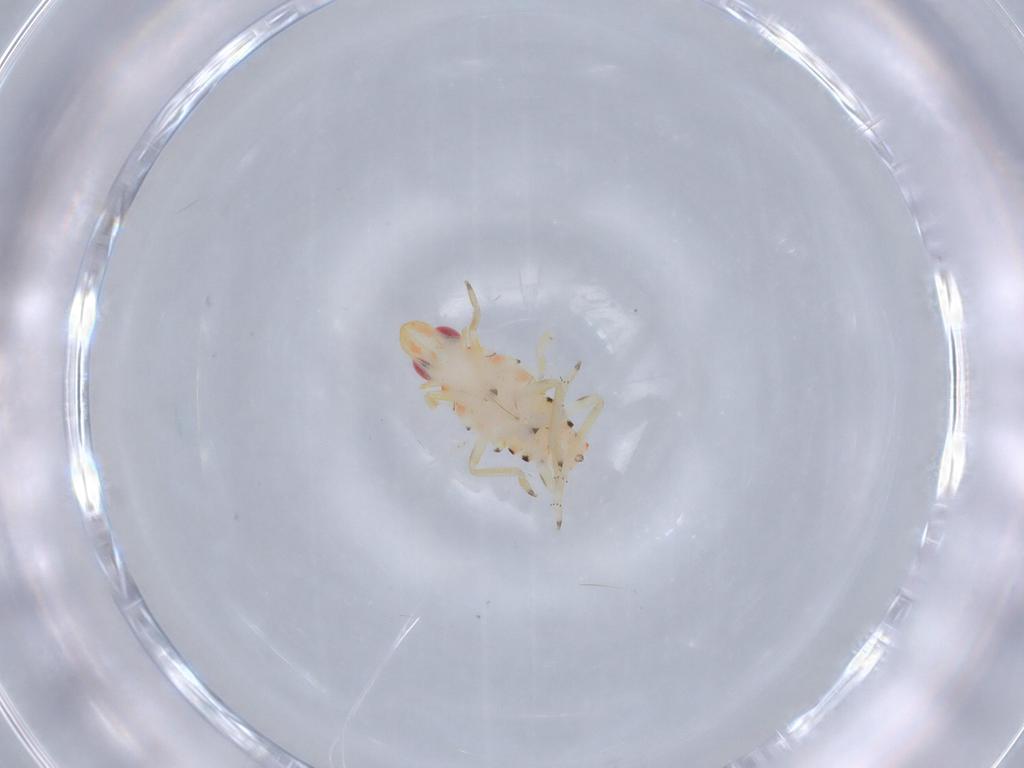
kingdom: Animalia
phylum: Arthropoda
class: Insecta
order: Hemiptera
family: Tropiduchidae
